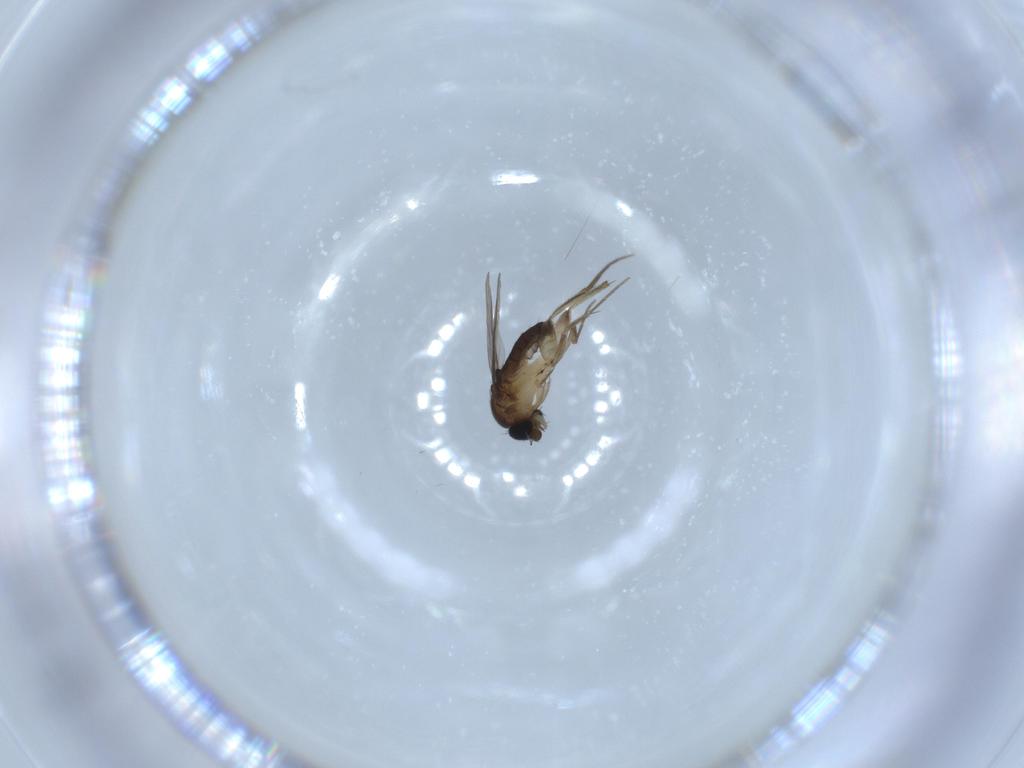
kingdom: Animalia
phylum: Arthropoda
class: Insecta
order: Diptera
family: Phoridae
